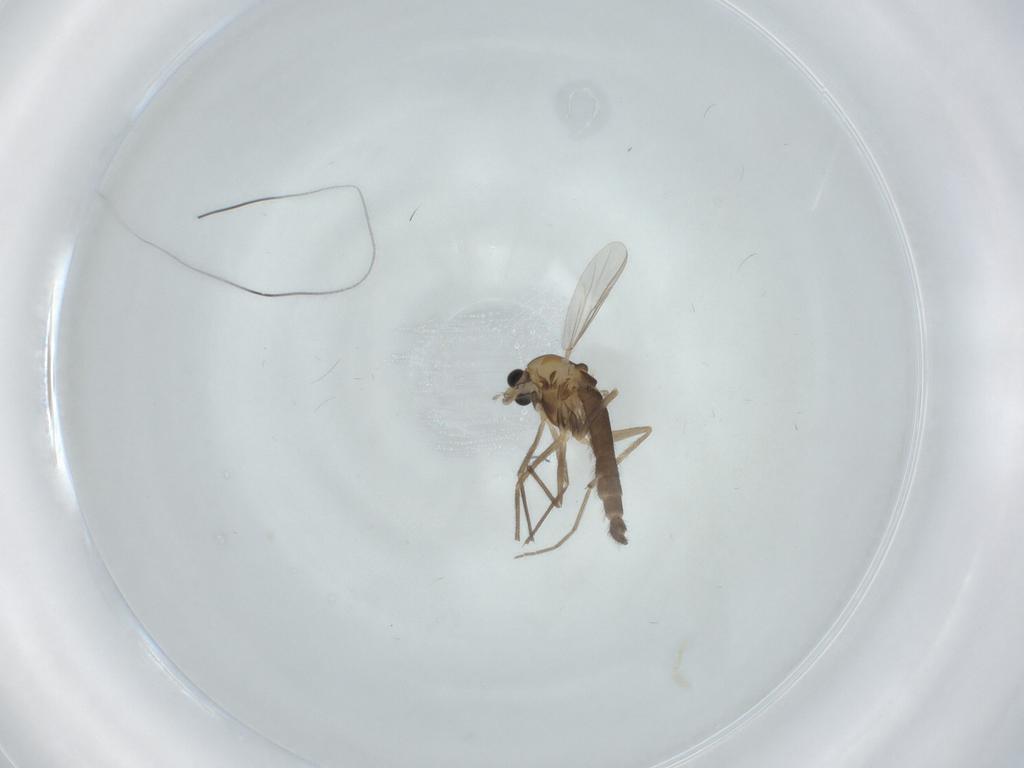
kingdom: Animalia
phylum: Arthropoda
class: Insecta
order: Diptera
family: Chironomidae
